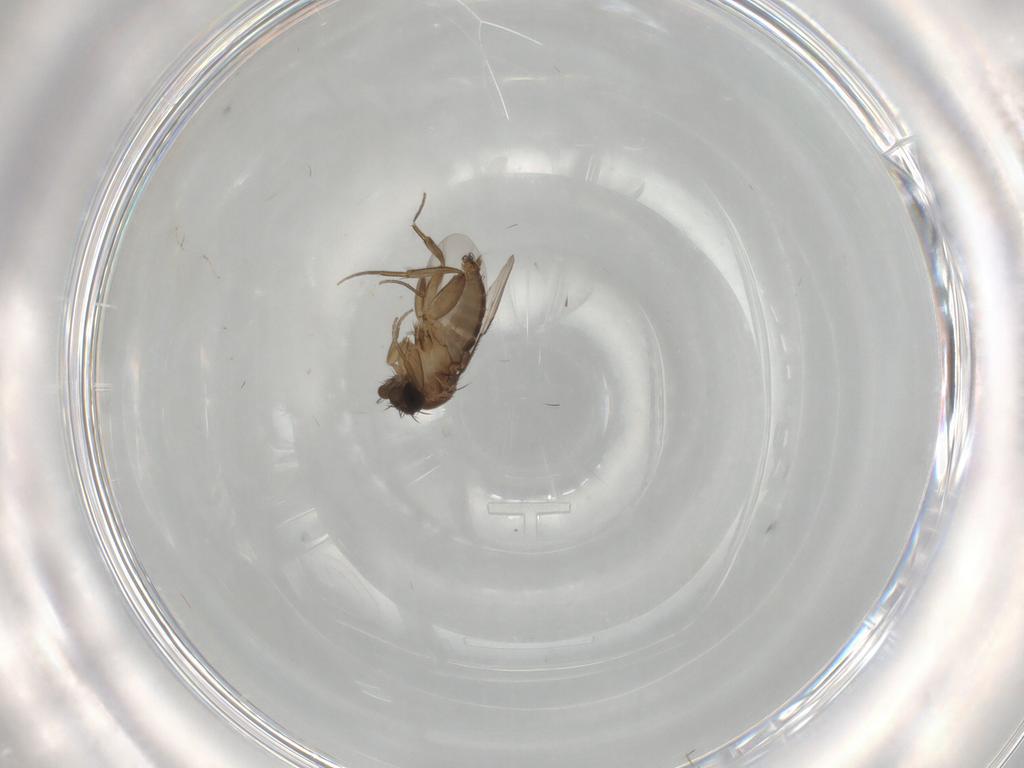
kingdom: Animalia
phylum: Arthropoda
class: Insecta
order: Diptera
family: Phoridae
